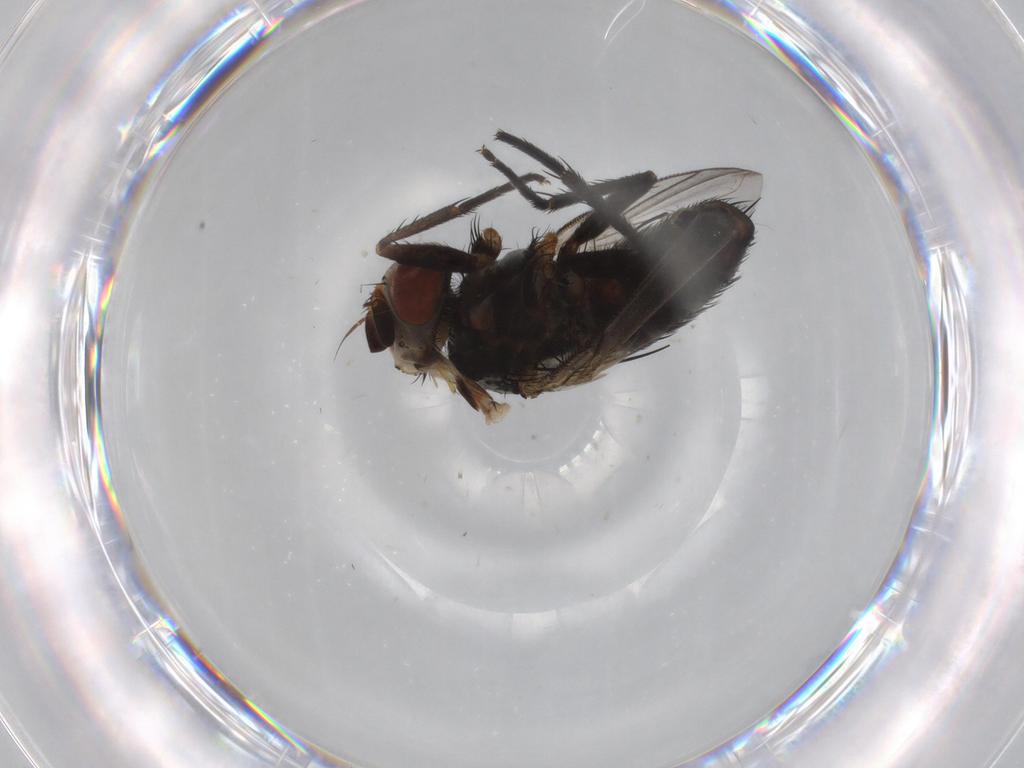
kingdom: Animalia
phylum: Arthropoda
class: Insecta
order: Diptera
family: Tachinidae
